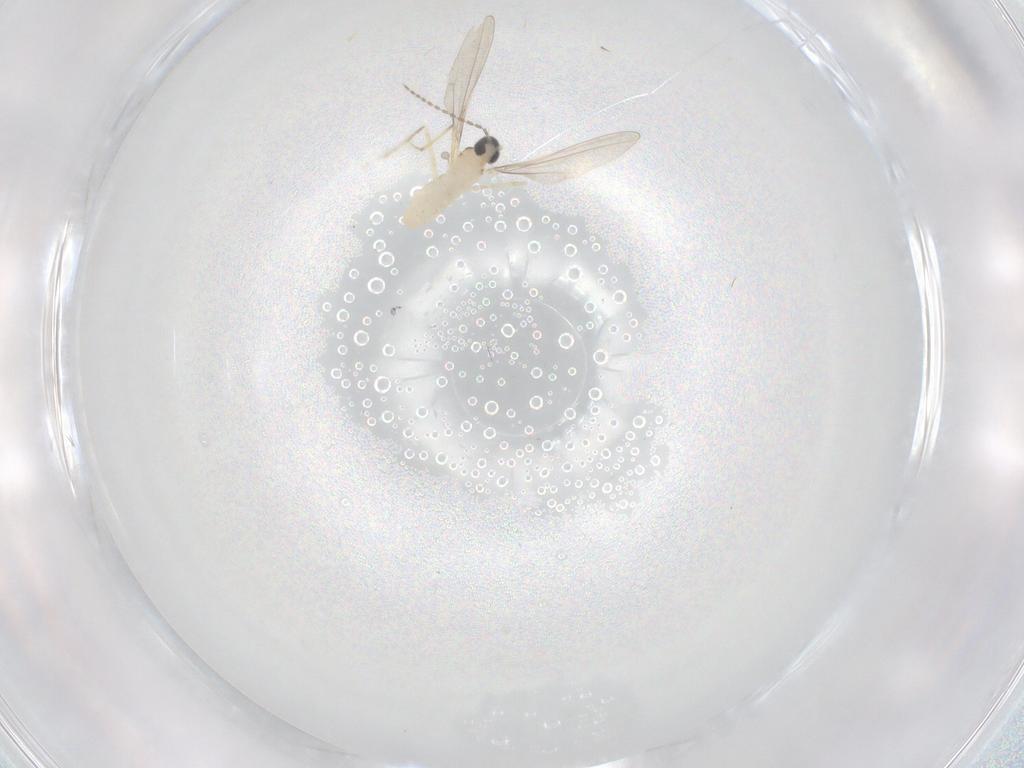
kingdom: Animalia
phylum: Arthropoda
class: Insecta
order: Diptera
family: Cecidomyiidae
